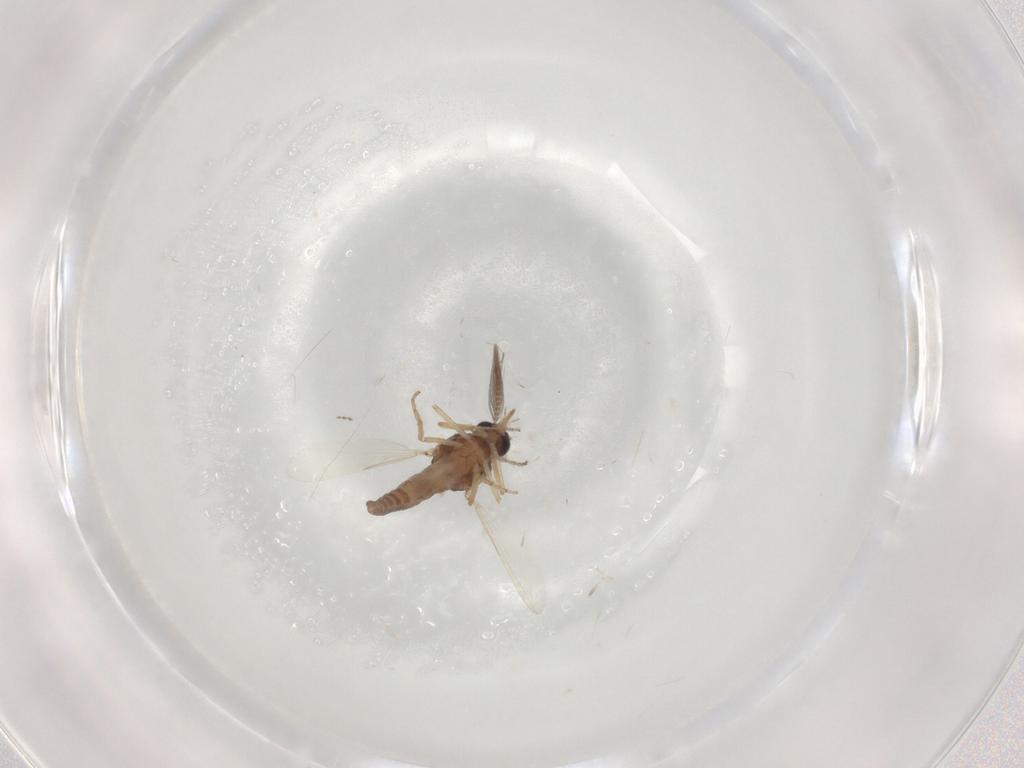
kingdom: Animalia
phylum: Arthropoda
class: Insecta
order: Diptera
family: Ceratopogonidae
